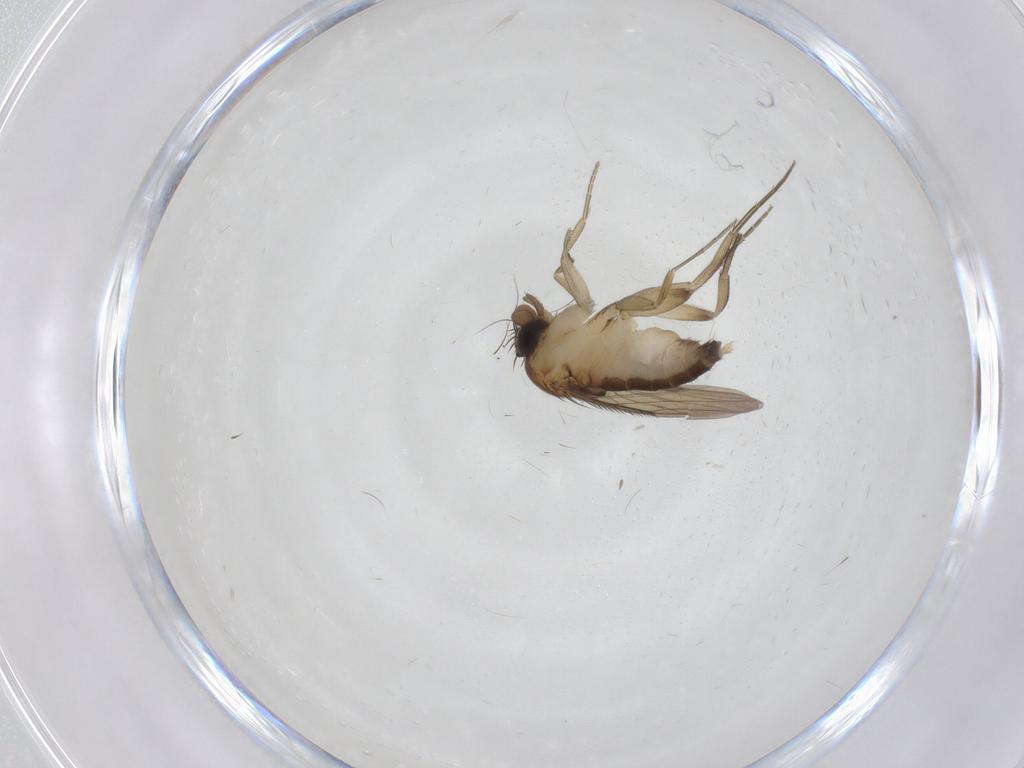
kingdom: Animalia
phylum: Arthropoda
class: Insecta
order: Diptera
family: Phoridae
